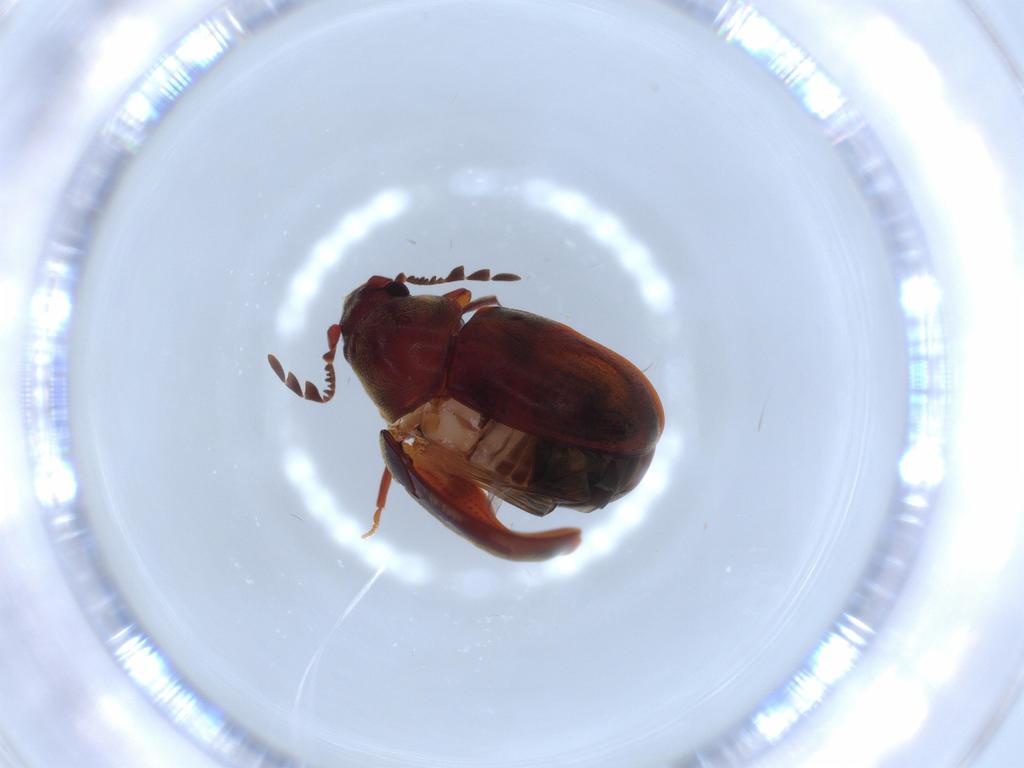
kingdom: Animalia
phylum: Arthropoda
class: Insecta
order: Coleoptera
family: Ptinidae
